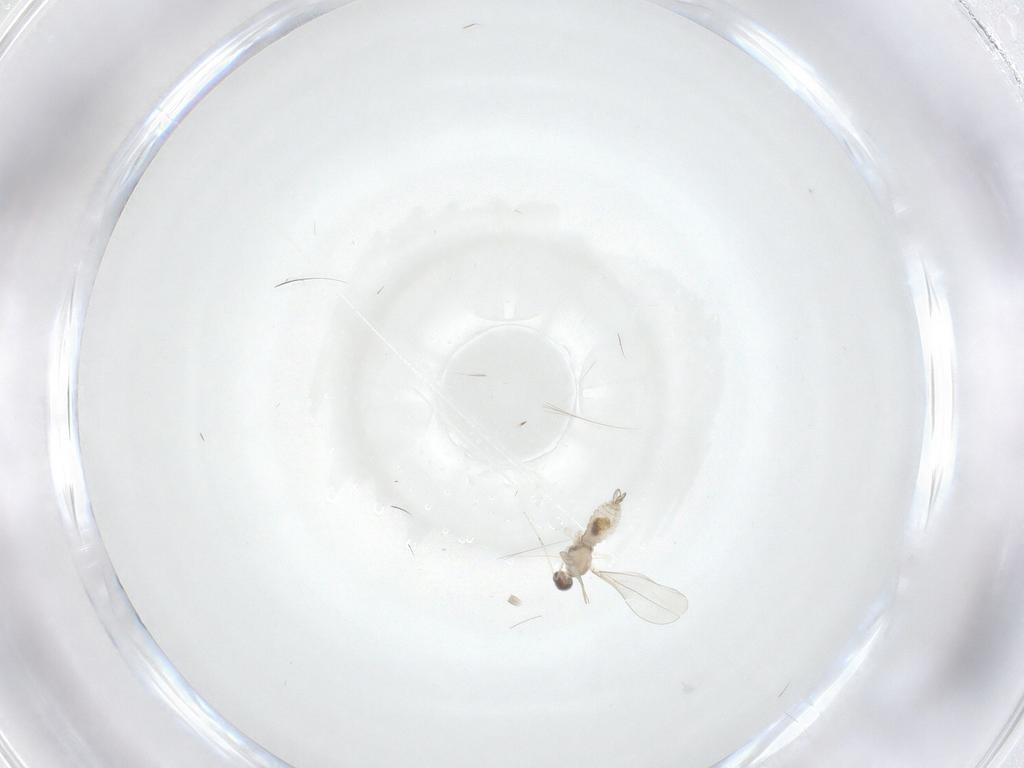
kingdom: Animalia
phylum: Arthropoda
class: Insecta
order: Diptera
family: Cecidomyiidae
